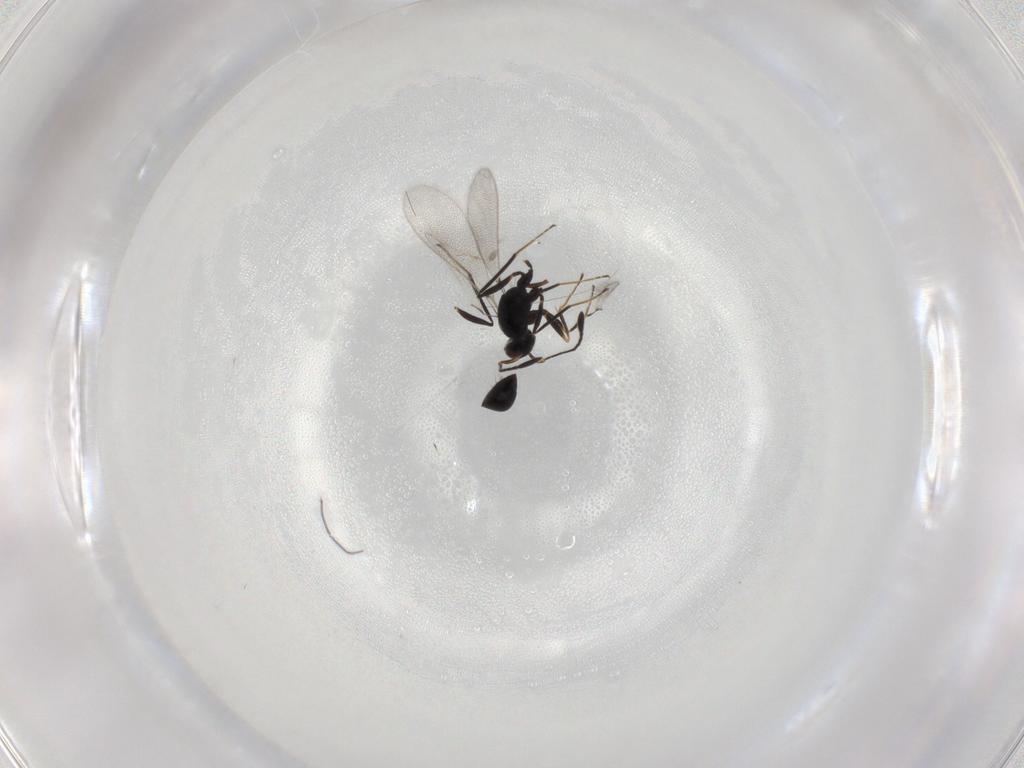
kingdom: Animalia
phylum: Arthropoda
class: Insecta
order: Hymenoptera
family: Mymaridae
